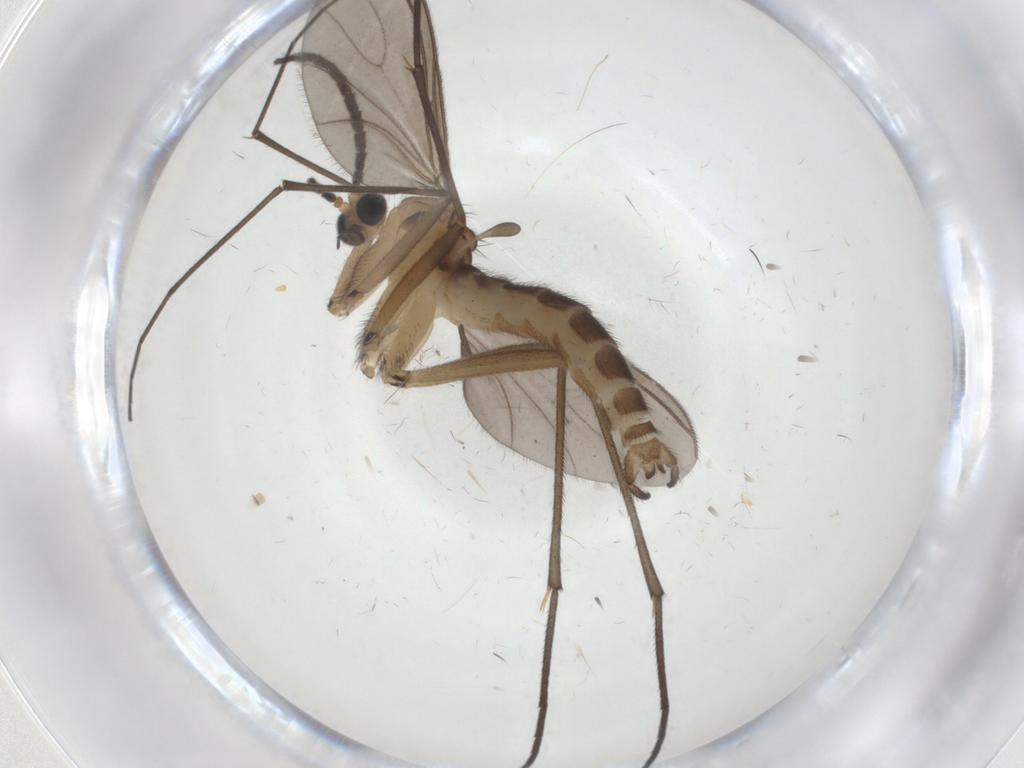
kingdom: Animalia
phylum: Arthropoda
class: Insecta
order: Diptera
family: Sciaridae
